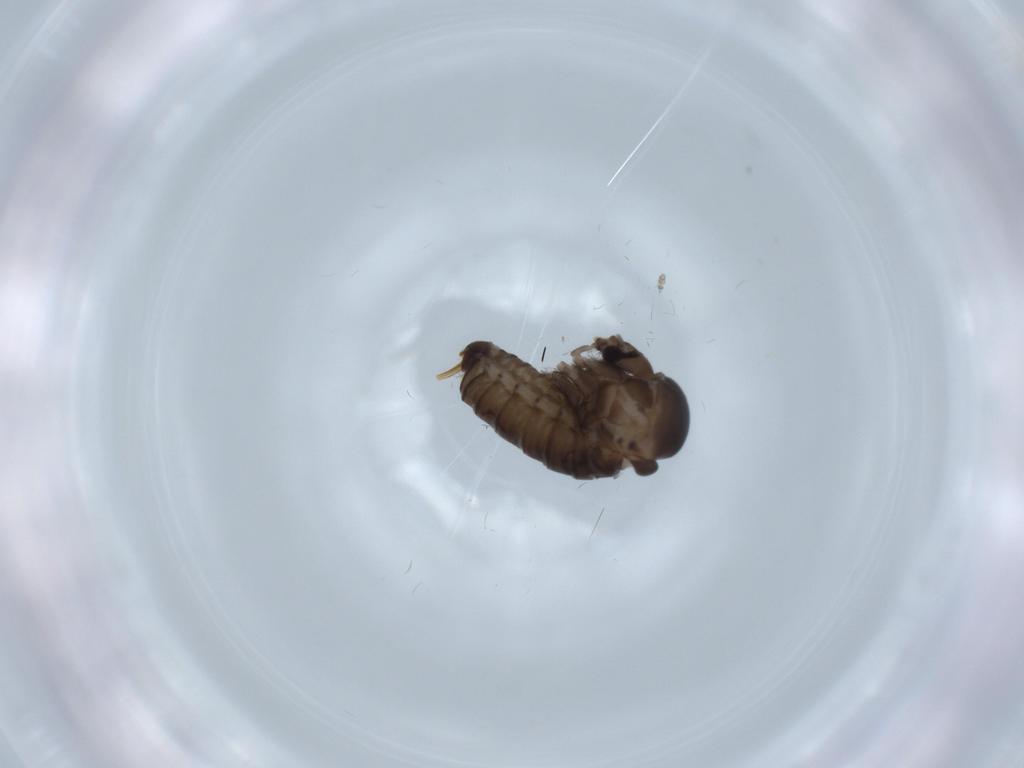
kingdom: Animalia
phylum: Arthropoda
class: Insecta
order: Diptera
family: Psychodidae
